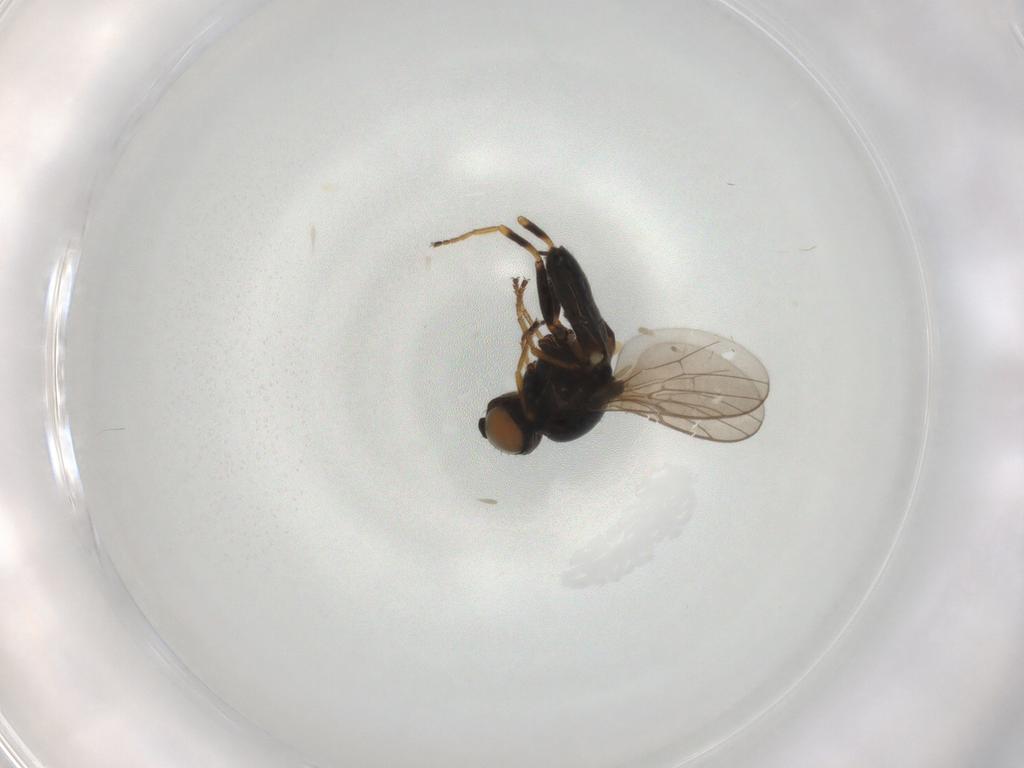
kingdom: Animalia
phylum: Arthropoda
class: Insecta
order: Diptera
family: Chloropidae
